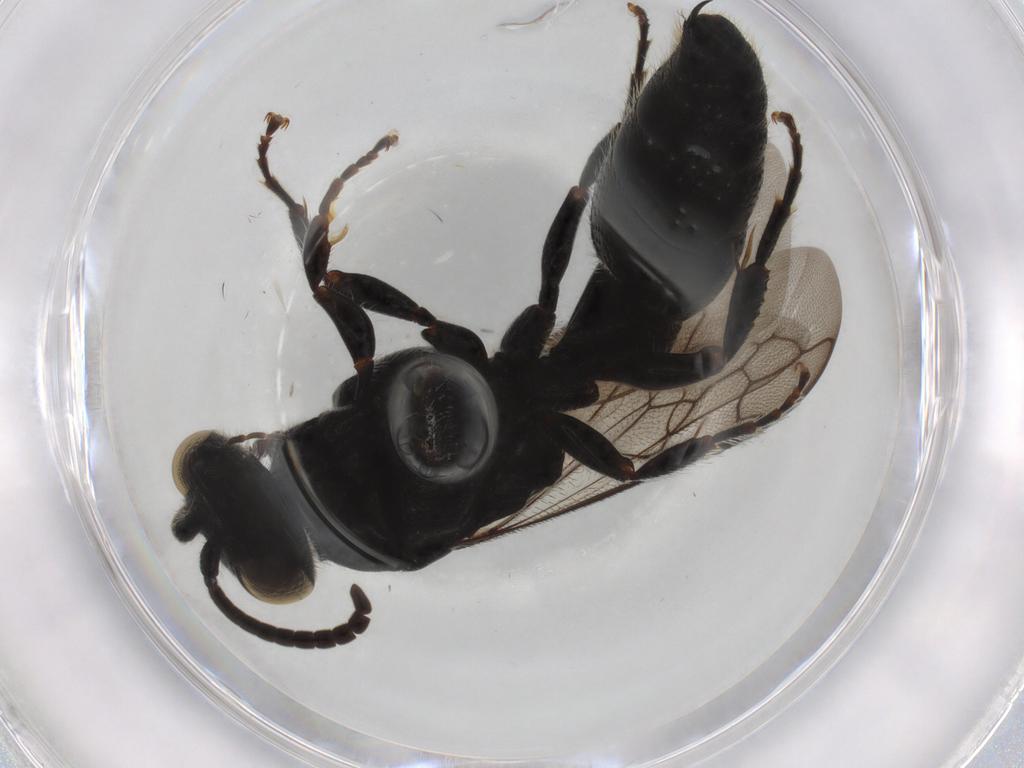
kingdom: Animalia
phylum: Arthropoda
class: Insecta
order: Hymenoptera
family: Tiphiidae
